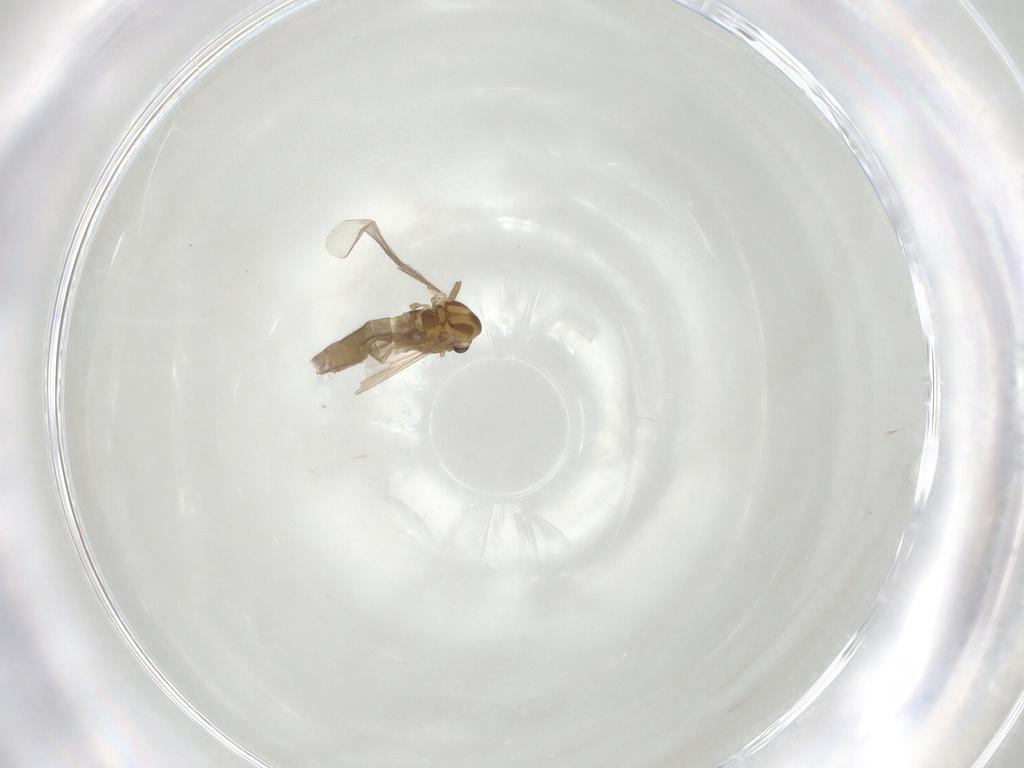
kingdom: Animalia
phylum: Arthropoda
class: Insecta
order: Diptera
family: Chironomidae
